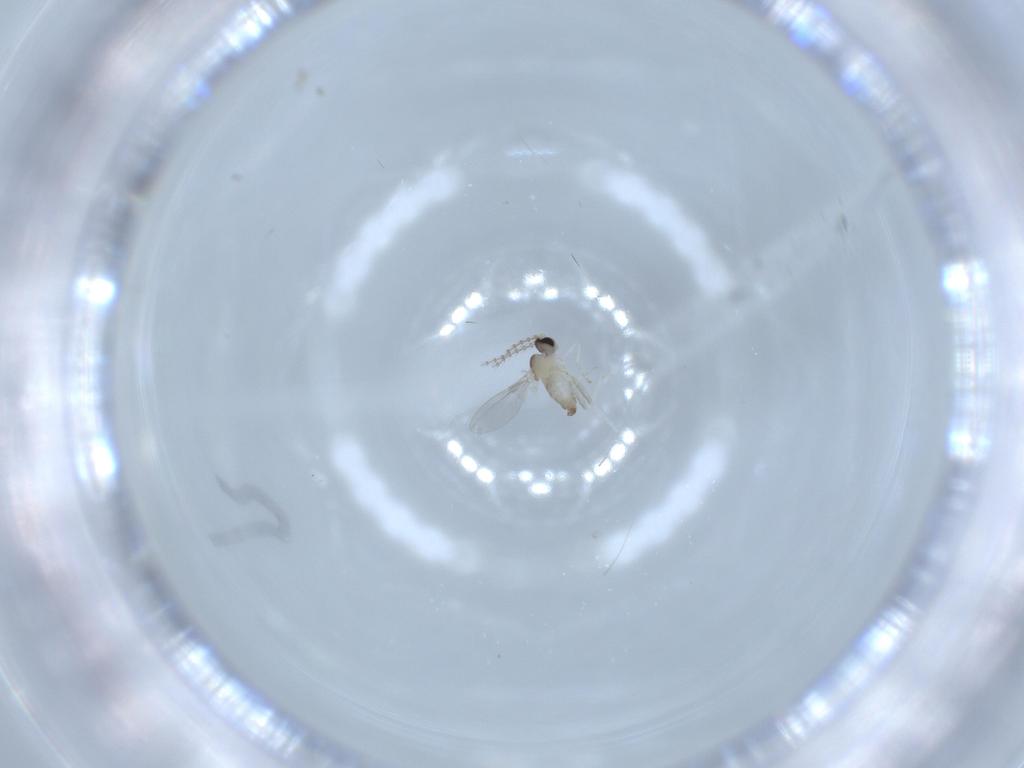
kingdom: Animalia
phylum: Arthropoda
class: Insecta
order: Diptera
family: Cecidomyiidae
